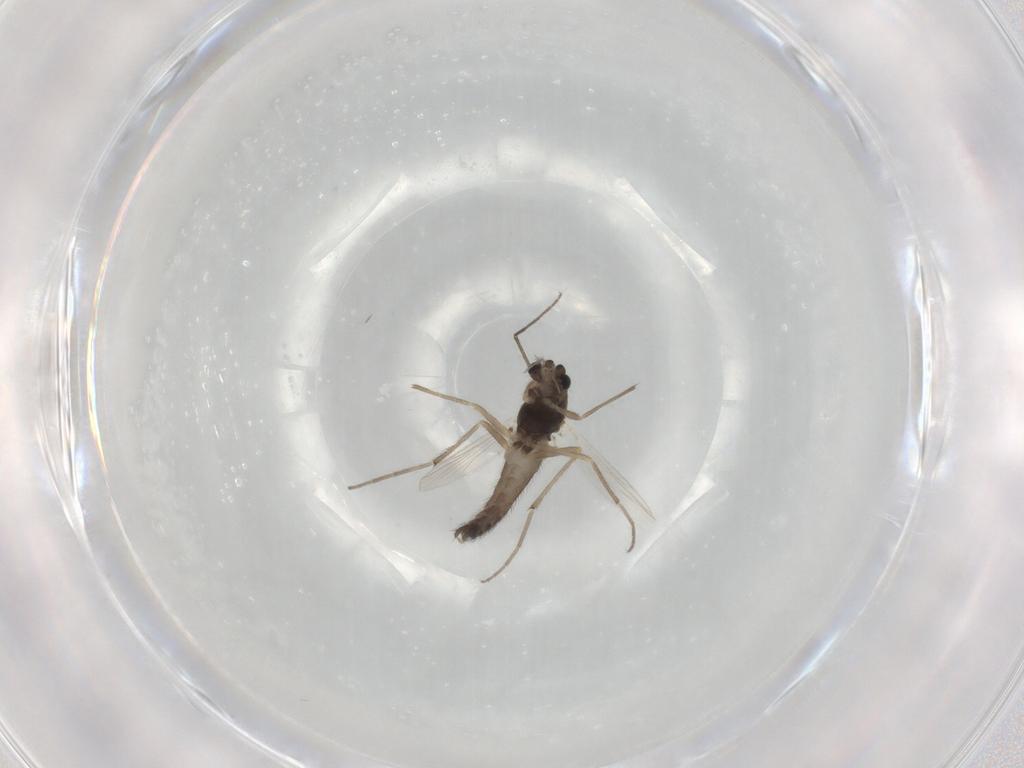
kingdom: Animalia
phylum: Arthropoda
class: Insecta
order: Diptera
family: Chironomidae
